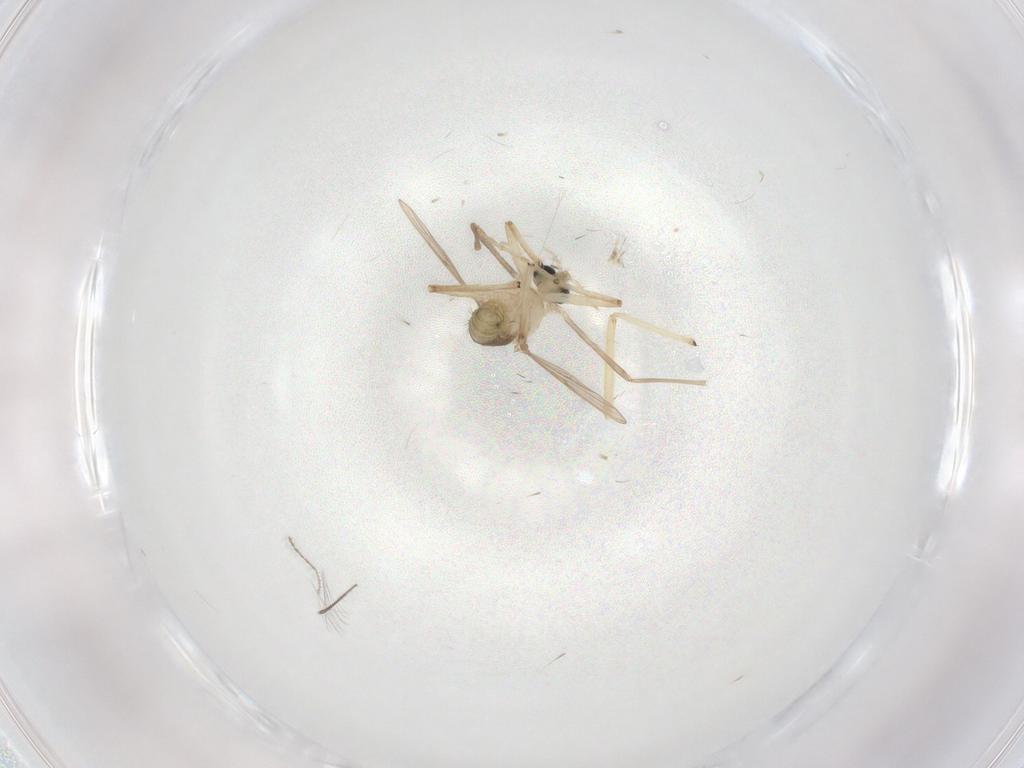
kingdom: Animalia
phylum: Arthropoda
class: Insecta
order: Diptera
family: Chironomidae
